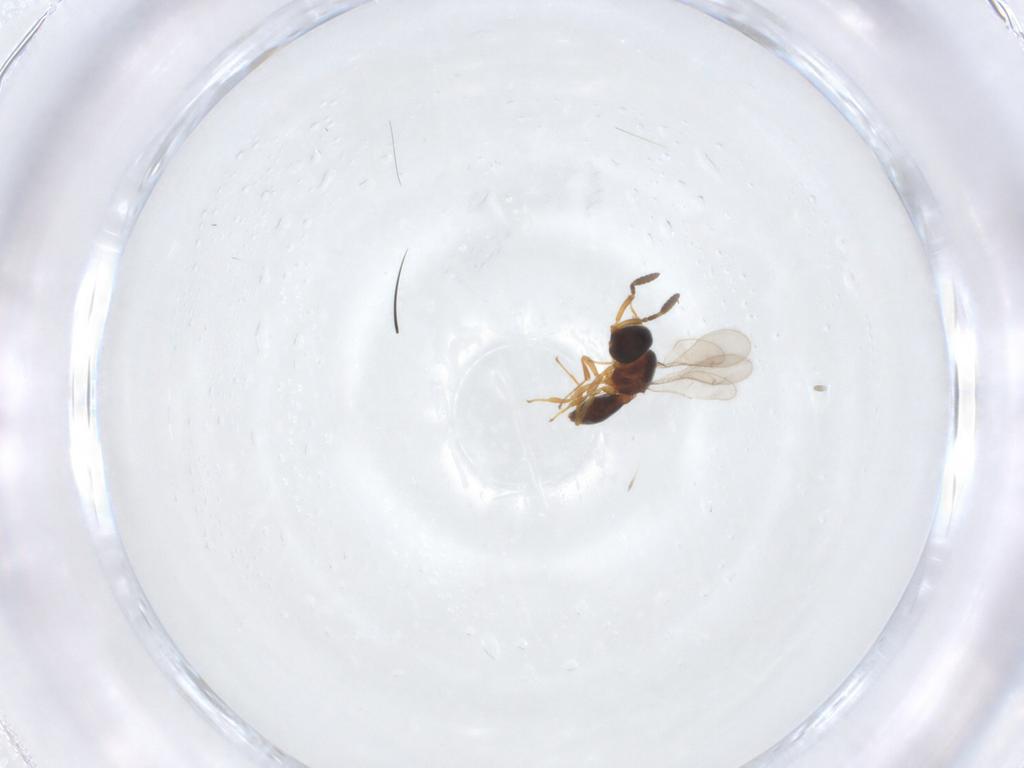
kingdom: Animalia
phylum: Arthropoda
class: Insecta
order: Hymenoptera
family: Scelionidae
